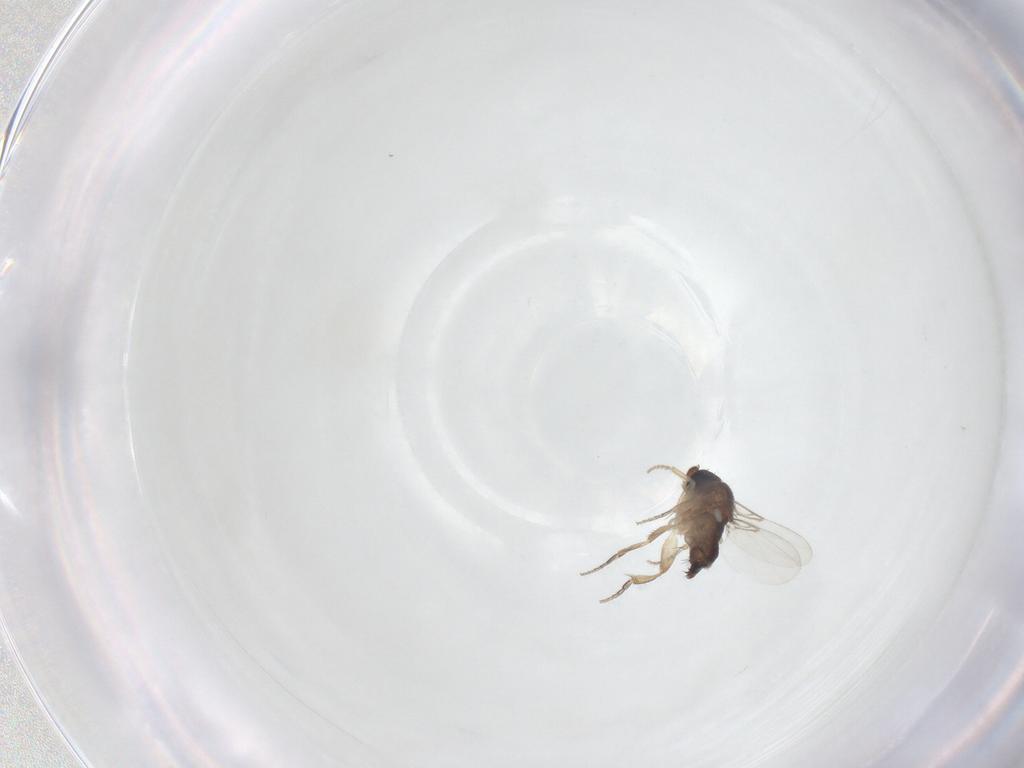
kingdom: Animalia
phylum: Arthropoda
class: Insecta
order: Diptera
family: Phoridae
